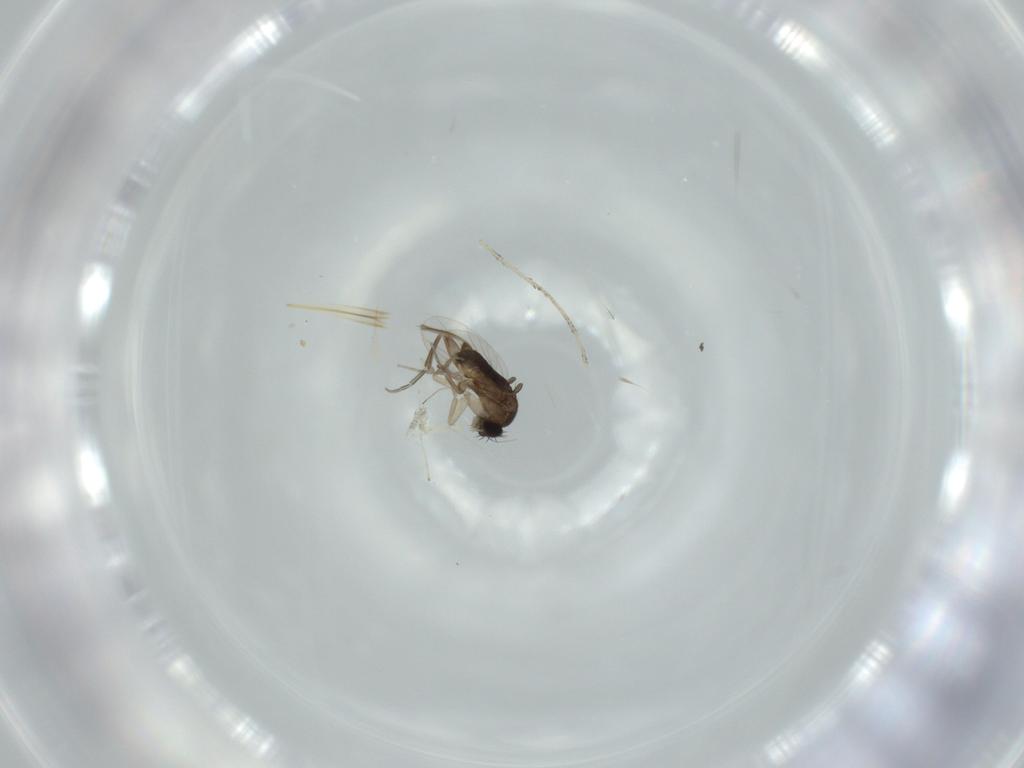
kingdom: Animalia
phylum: Arthropoda
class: Insecta
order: Diptera
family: Phoridae
